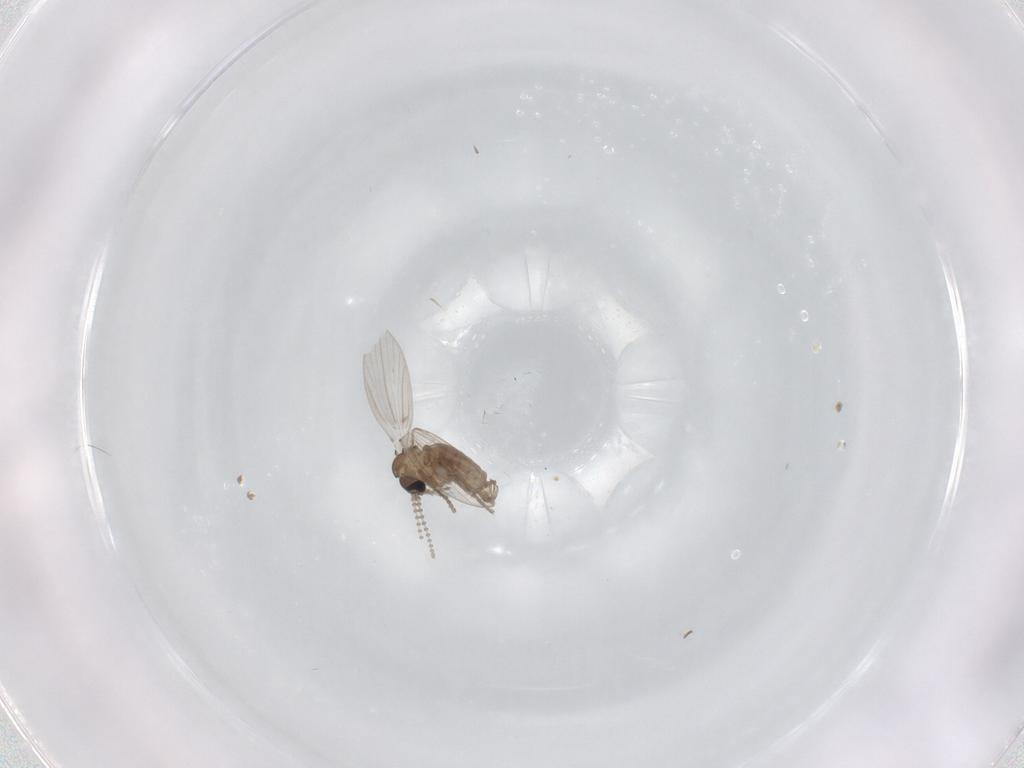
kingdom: Animalia
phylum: Arthropoda
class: Insecta
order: Diptera
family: Psychodidae
